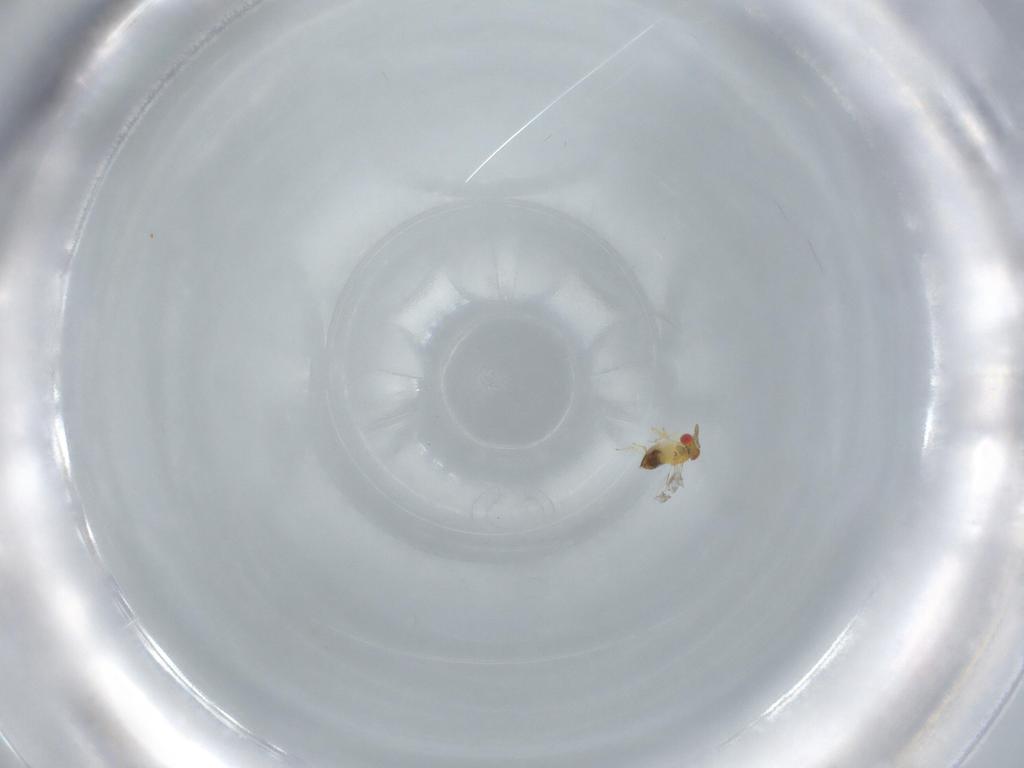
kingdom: Animalia
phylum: Arthropoda
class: Insecta
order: Hymenoptera
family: Trichogrammatidae
